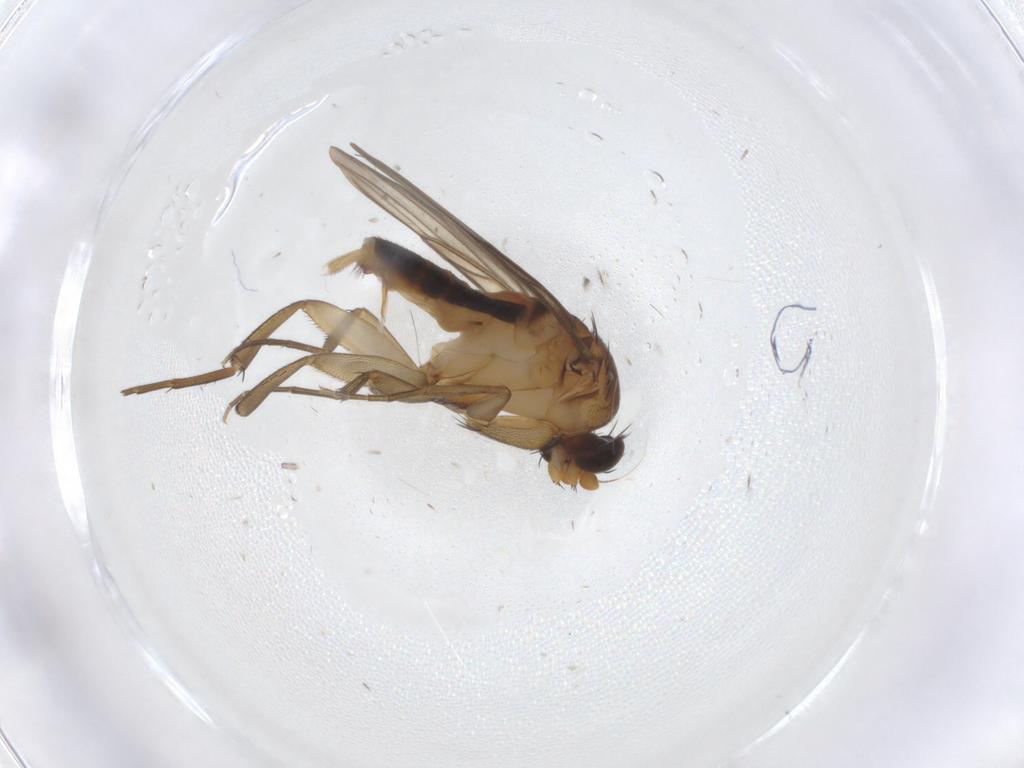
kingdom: Animalia
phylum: Arthropoda
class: Insecta
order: Diptera
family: Phoridae
